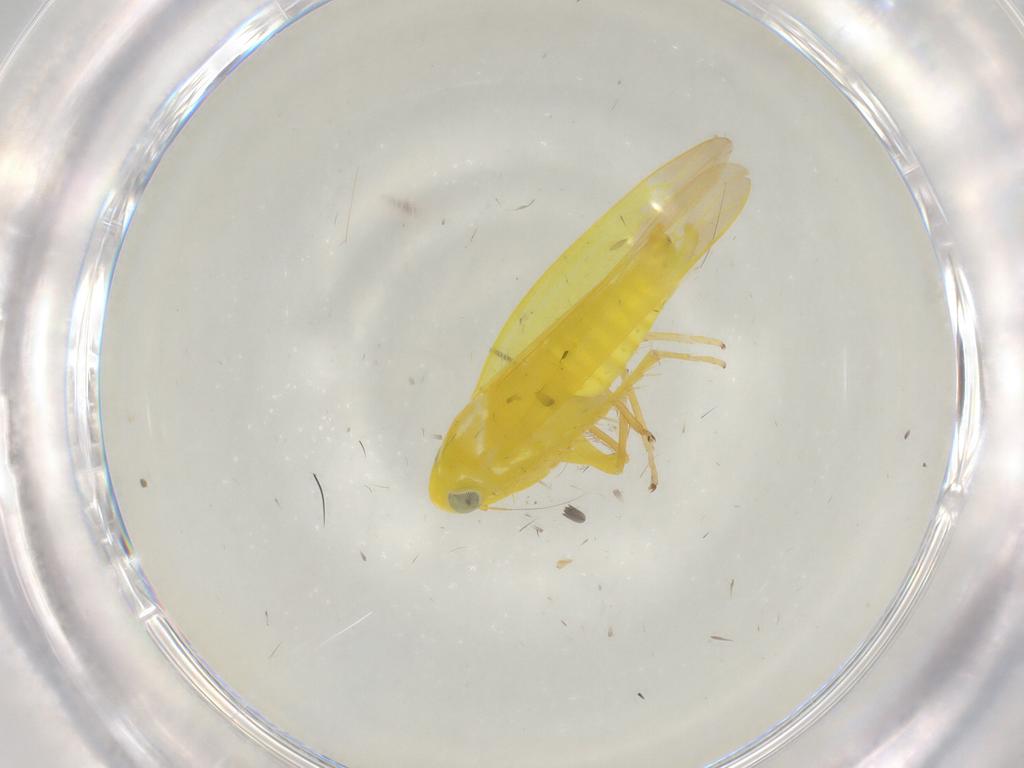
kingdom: Animalia
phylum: Arthropoda
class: Insecta
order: Hemiptera
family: Cicadellidae
